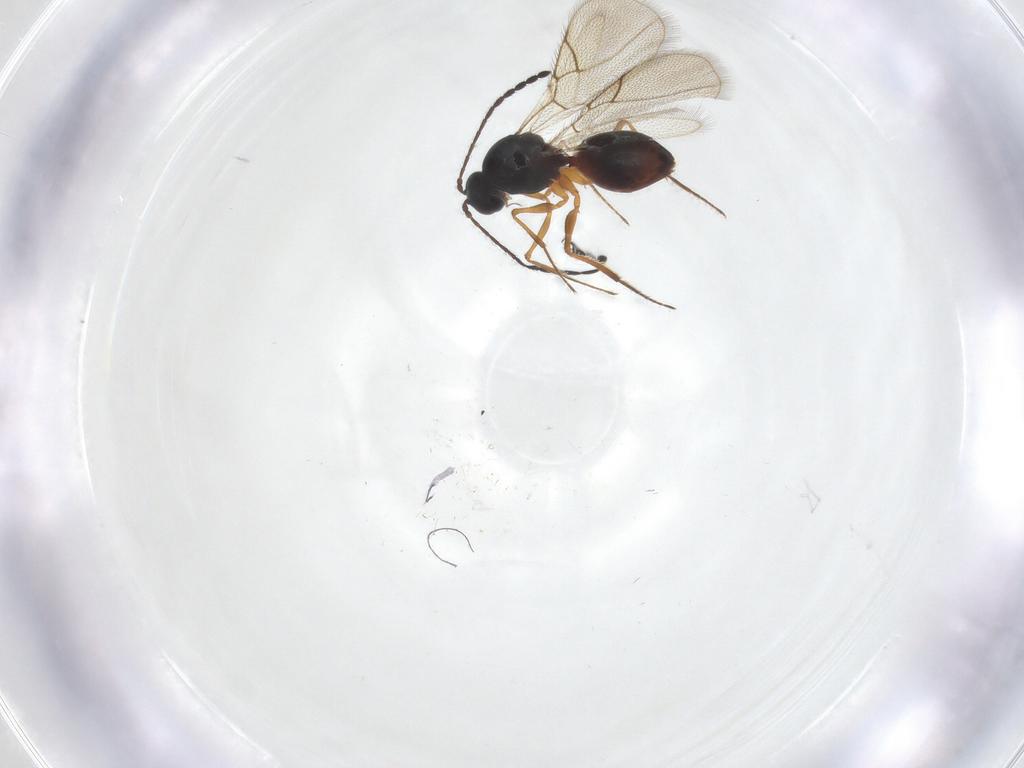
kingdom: Animalia
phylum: Arthropoda
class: Insecta
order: Hymenoptera
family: Figitidae
